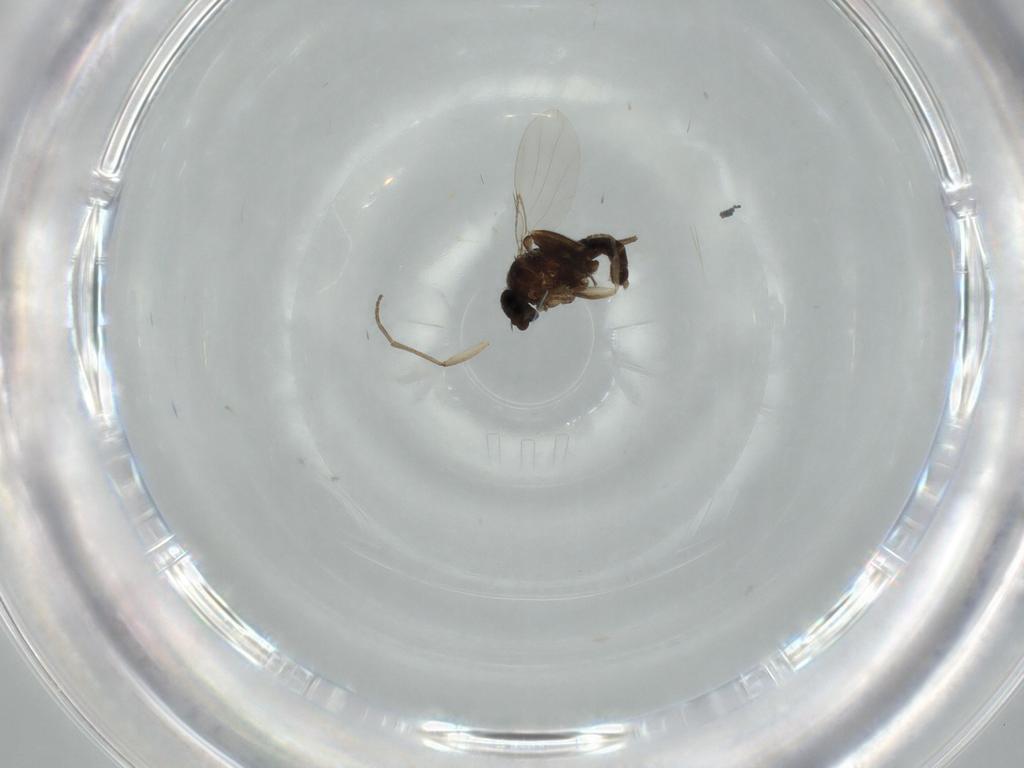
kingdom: Animalia
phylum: Arthropoda
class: Insecta
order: Diptera
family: Sciaridae
